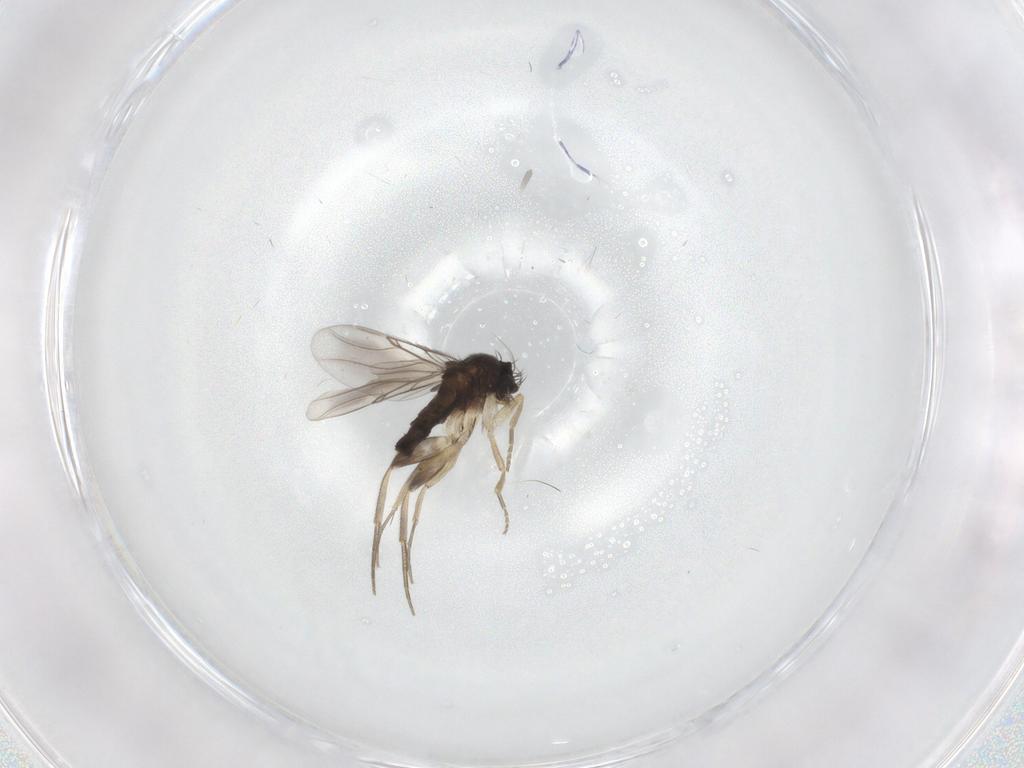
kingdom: Animalia
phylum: Arthropoda
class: Insecta
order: Diptera
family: Phoridae
